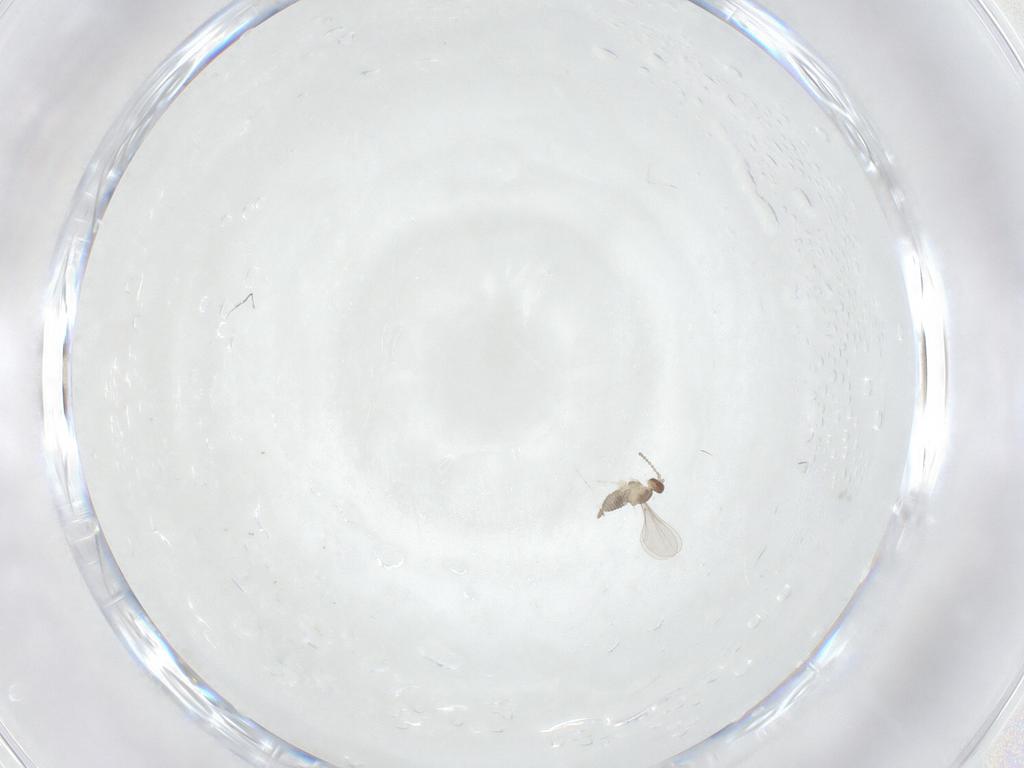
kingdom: Animalia
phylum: Arthropoda
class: Insecta
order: Diptera
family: Cecidomyiidae
